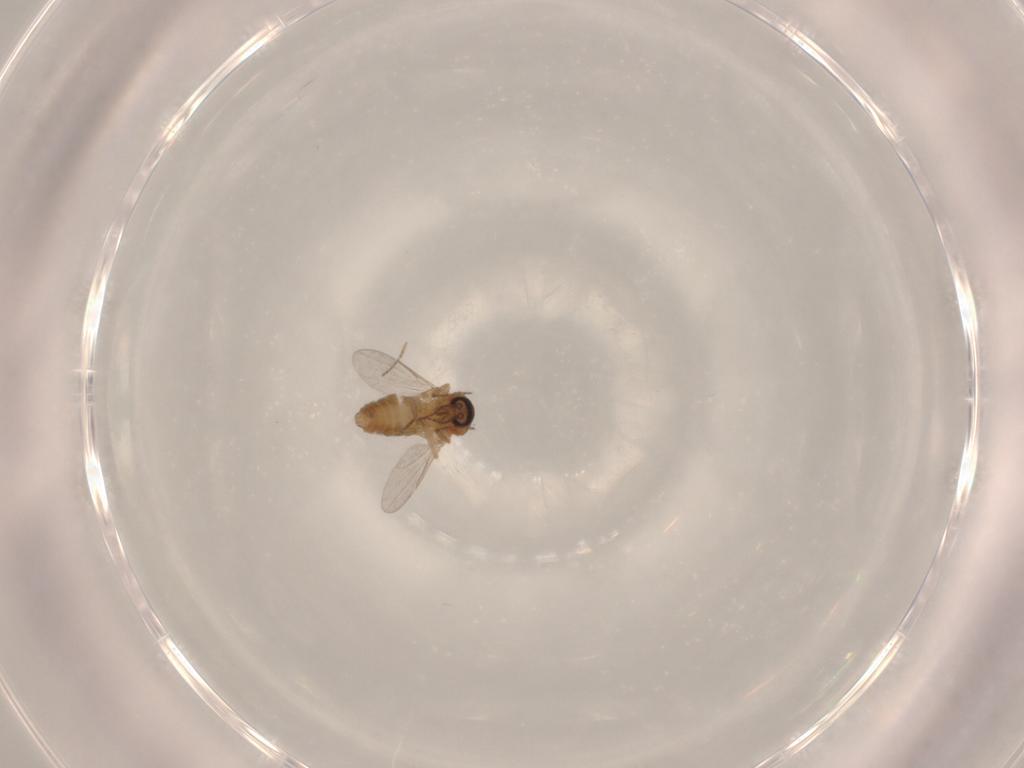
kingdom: Animalia
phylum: Arthropoda
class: Insecta
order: Diptera
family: Ceratopogonidae
